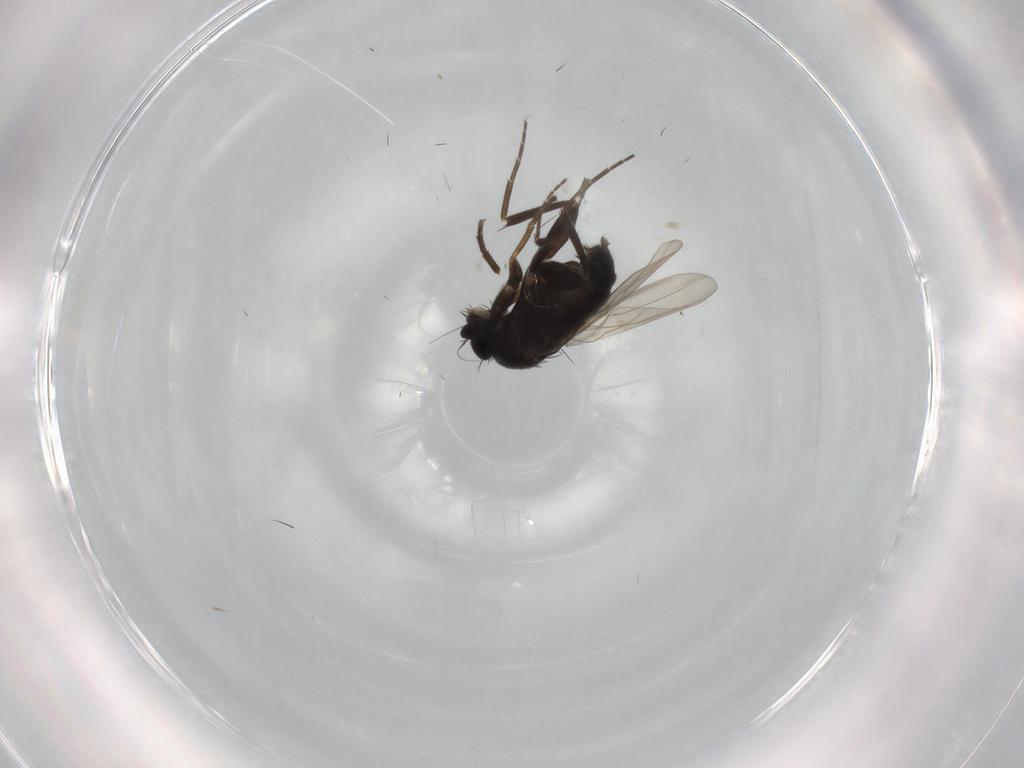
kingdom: Animalia
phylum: Arthropoda
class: Insecta
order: Diptera
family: Phoridae
